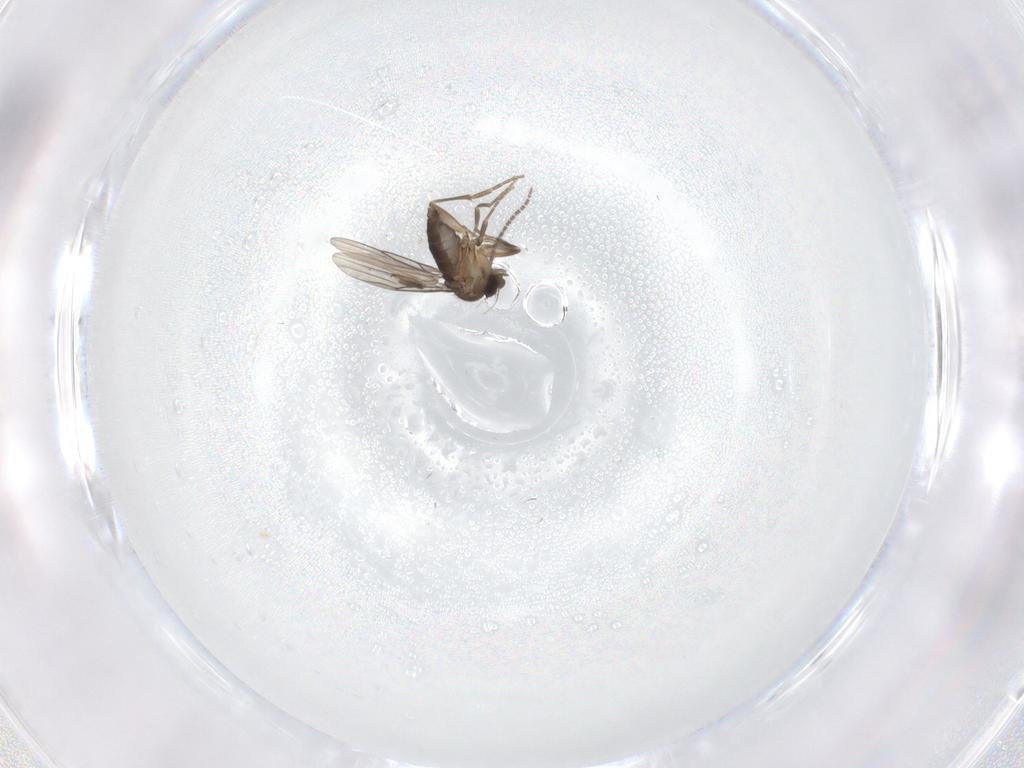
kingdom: Animalia
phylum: Arthropoda
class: Insecta
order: Diptera
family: Sciaridae
